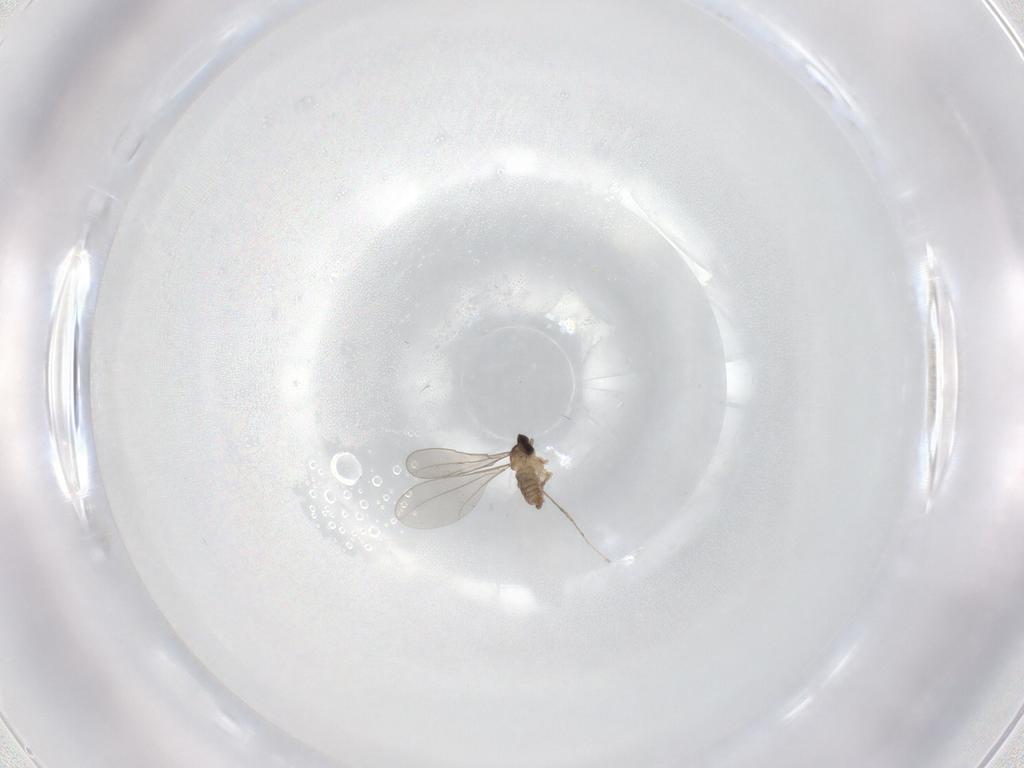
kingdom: Animalia
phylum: Arthropoda
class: Insecta
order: Diptera
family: Cecidomyiidae
